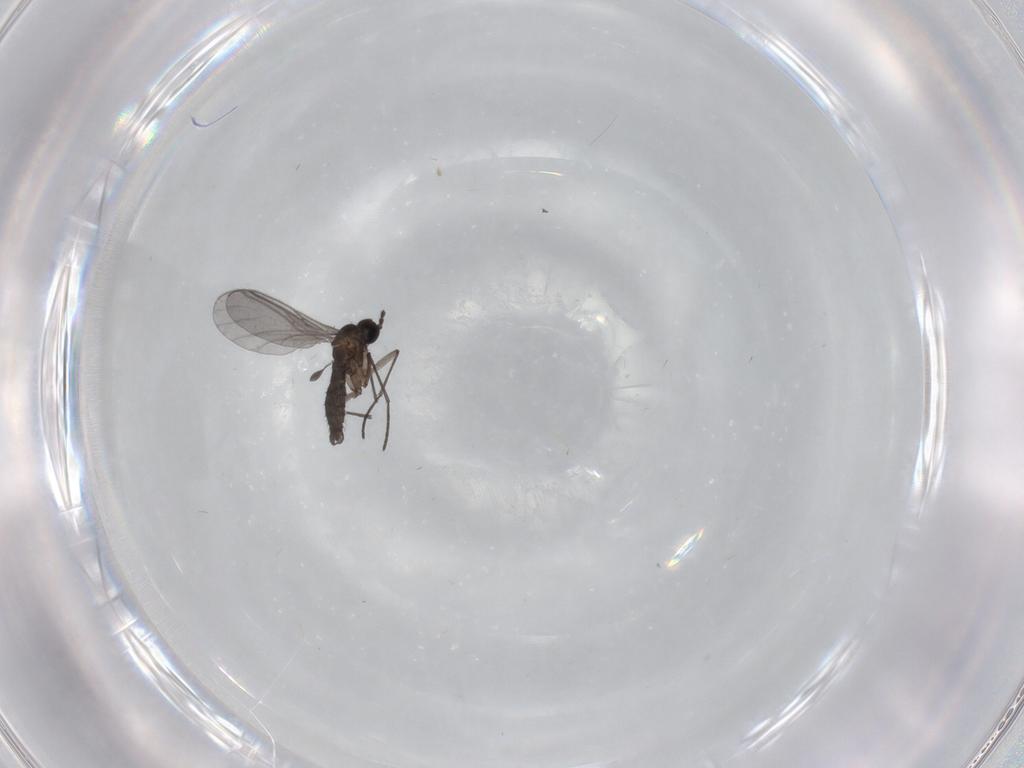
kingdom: Animalia
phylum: Arthropoda
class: Insecta
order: Diptera
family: Cecidomyiidae
